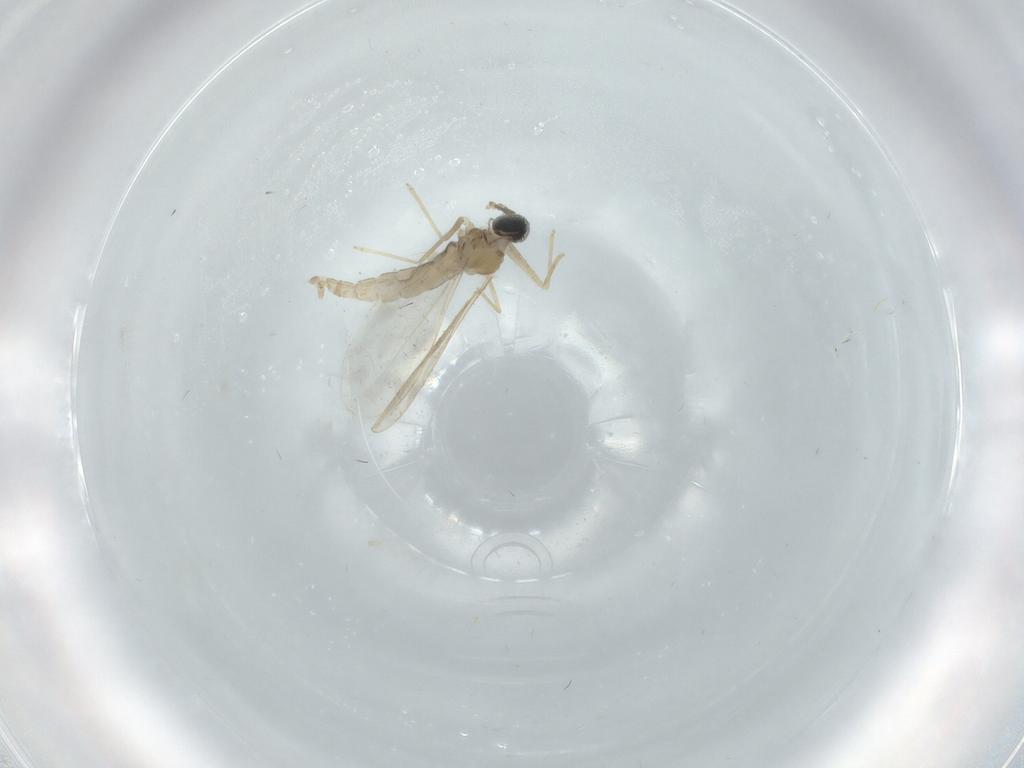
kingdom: Animalia
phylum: Arthropoda
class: Insecta
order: Diptera
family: Cecidomyiidae
